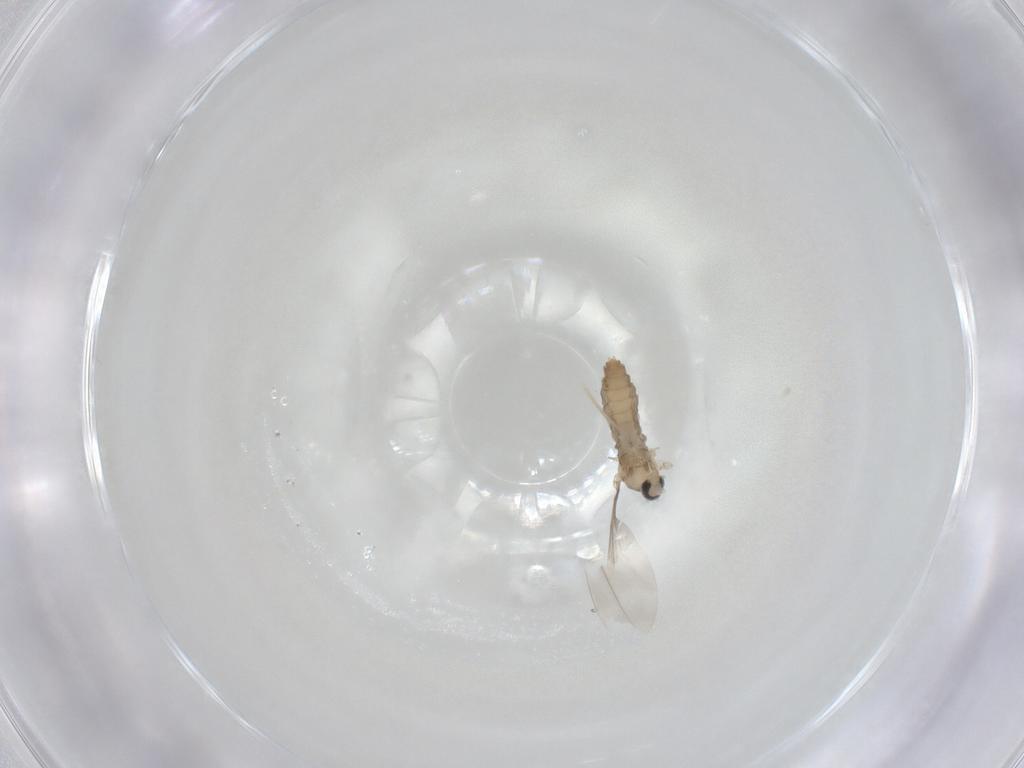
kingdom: Animalia
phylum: Arthropoda
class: Insecta
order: Diptera
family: Cecidomyiidae
